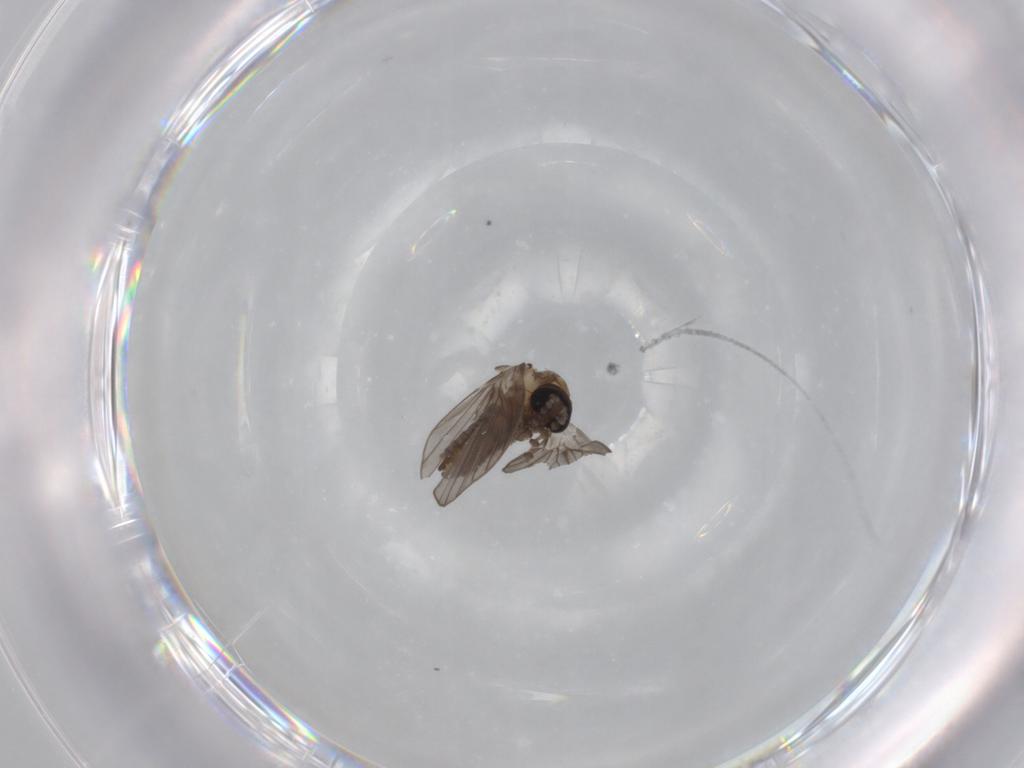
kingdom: Animalia
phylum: Arthropoda
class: Insecta
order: Diptera
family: Psychodidae
